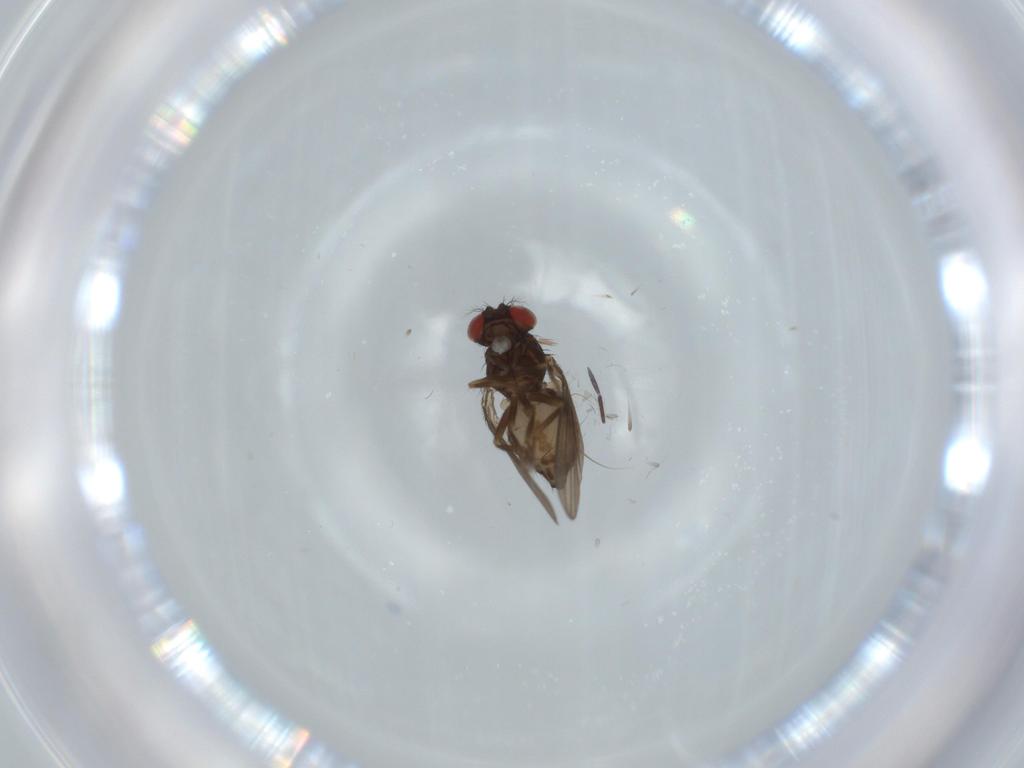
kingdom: Animalia
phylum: Arthropoda
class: Insecta
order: Diptera
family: Drosophilidae
